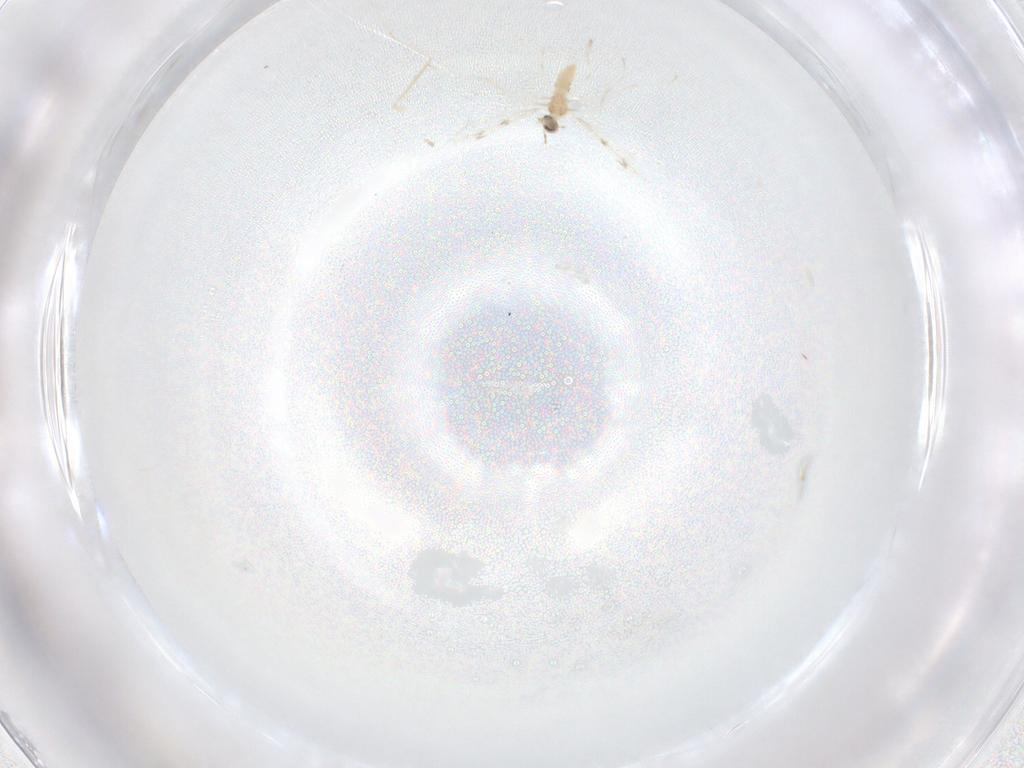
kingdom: Animalia
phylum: Arthropoda
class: Insecta
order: Diptera
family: Cecidomyiidae
